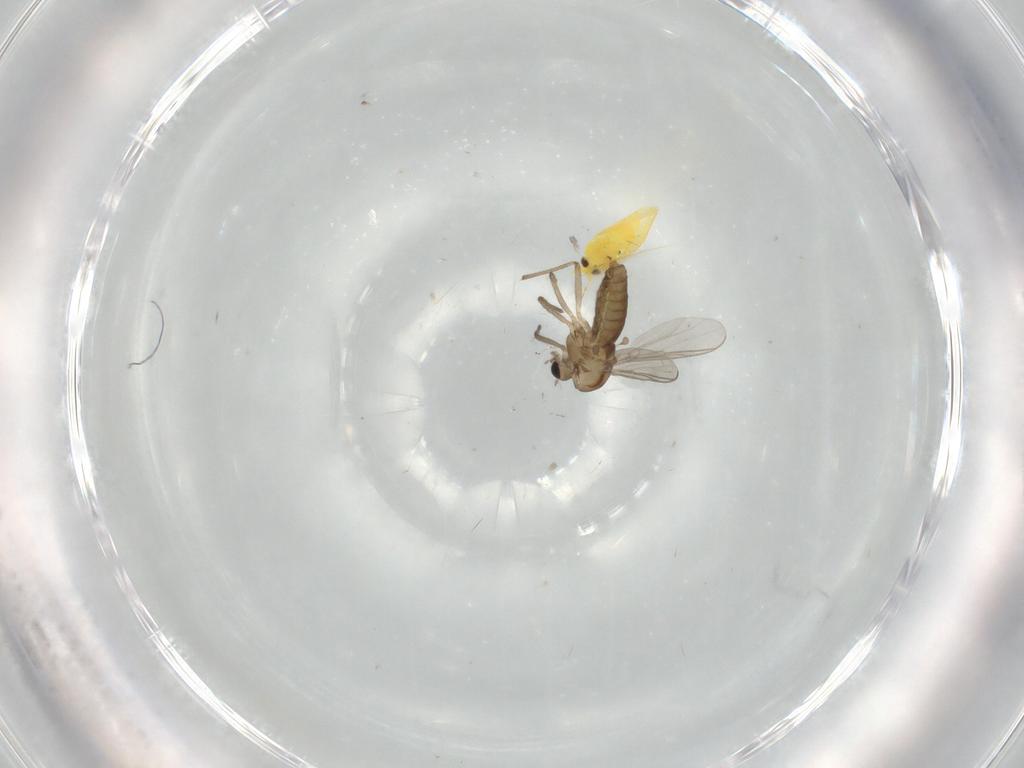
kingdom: Animalia
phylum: Arthropoda
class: Insecta
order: Diptera
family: Chironomidae
